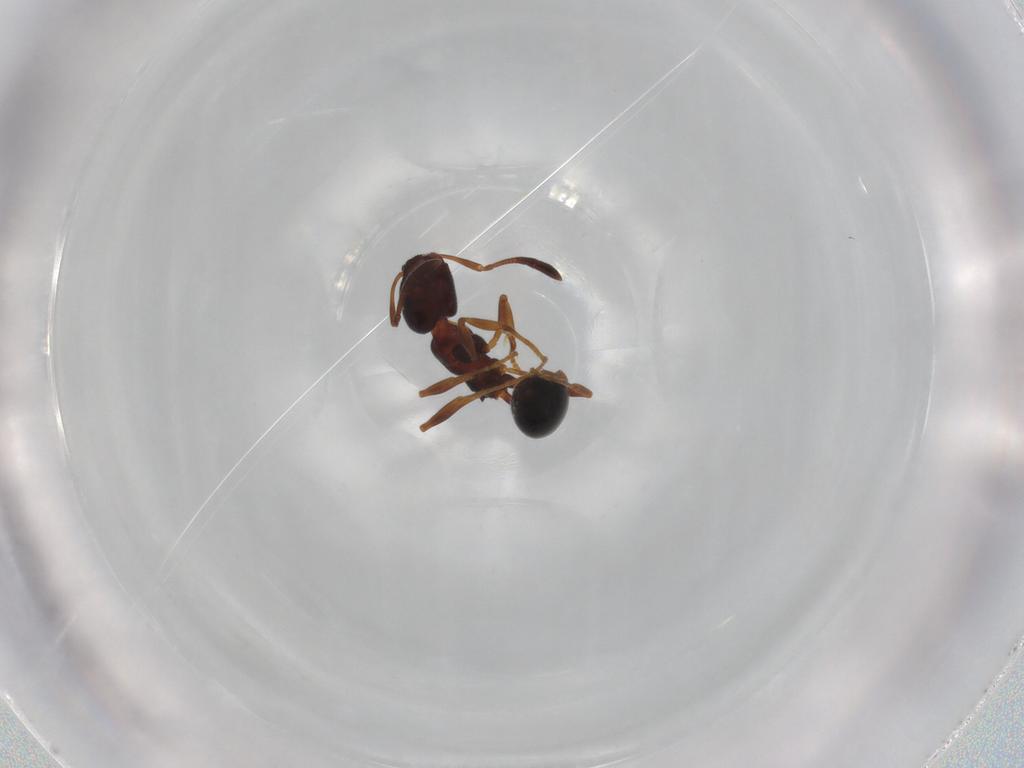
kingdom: Animalia
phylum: Arthropoda
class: Insecta
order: Hymenoptera
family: Formicidae
